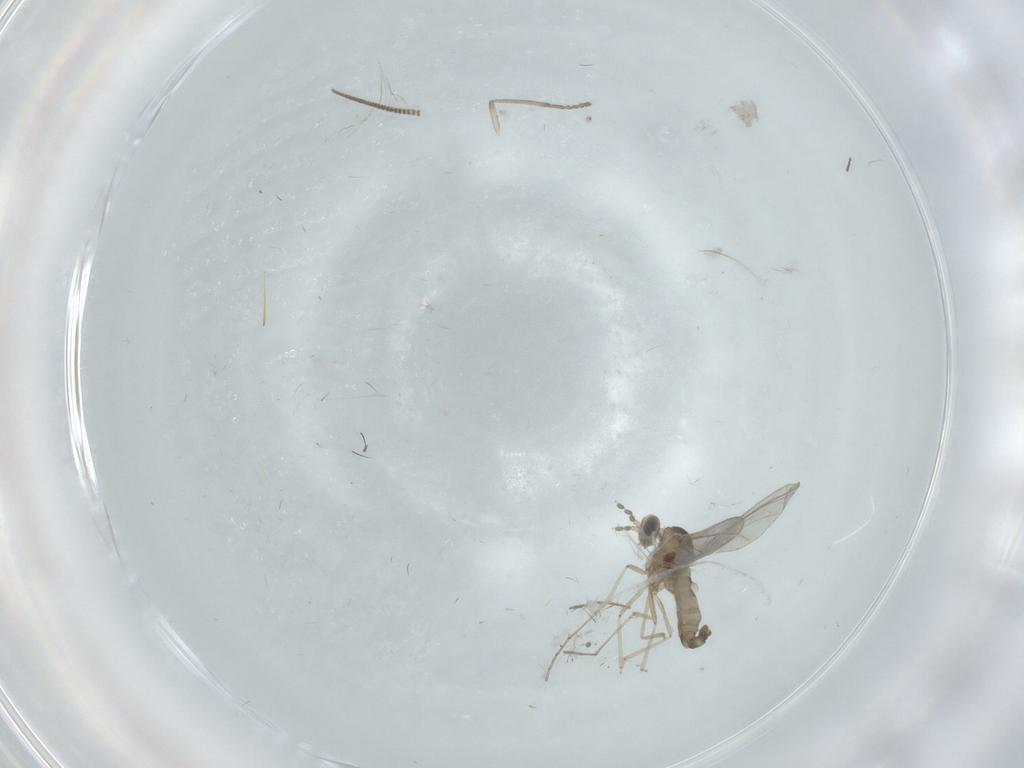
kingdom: Animalia
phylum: Arthropoda
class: Insecta
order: Diptera
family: Cecidomyiidae
